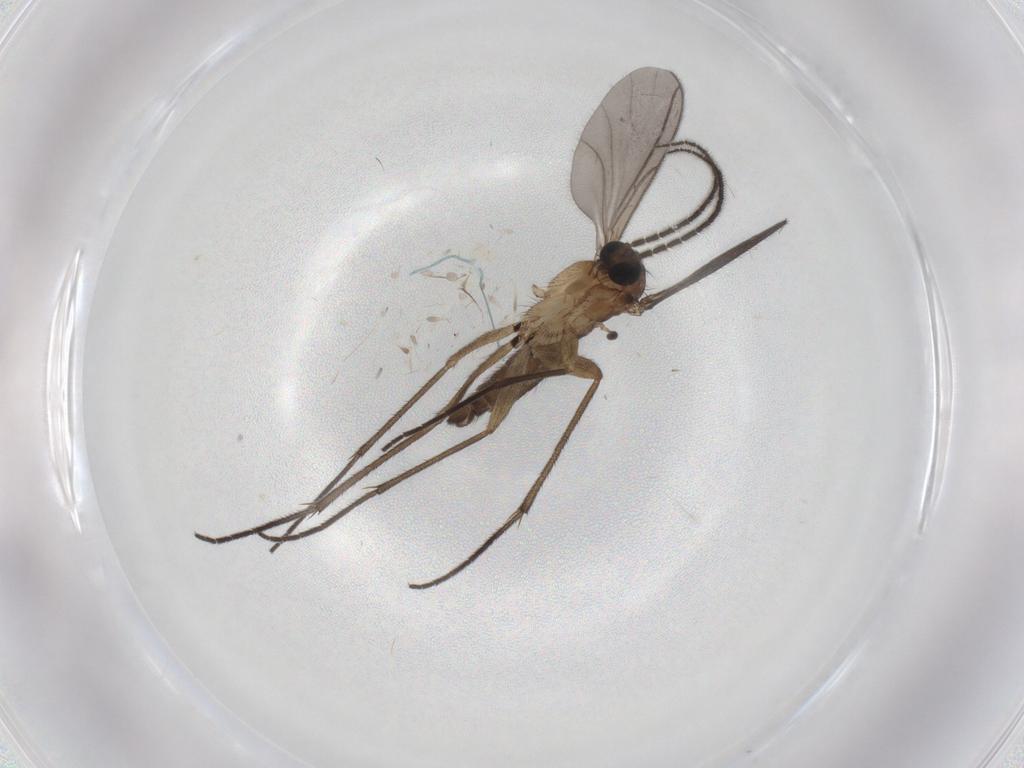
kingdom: Animalia
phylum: Arthropoda
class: Insecta
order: Diptera
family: Sciaridae
